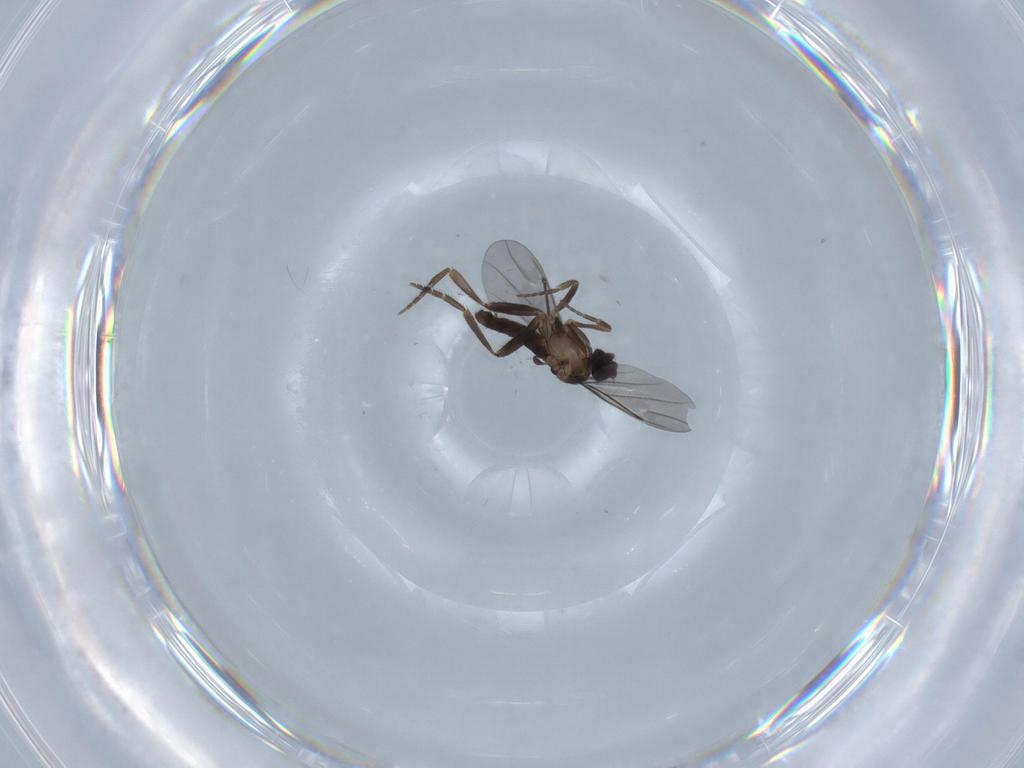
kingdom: Animalia
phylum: Arthropoda
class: Insecta
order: Diptera
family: Phoridae
